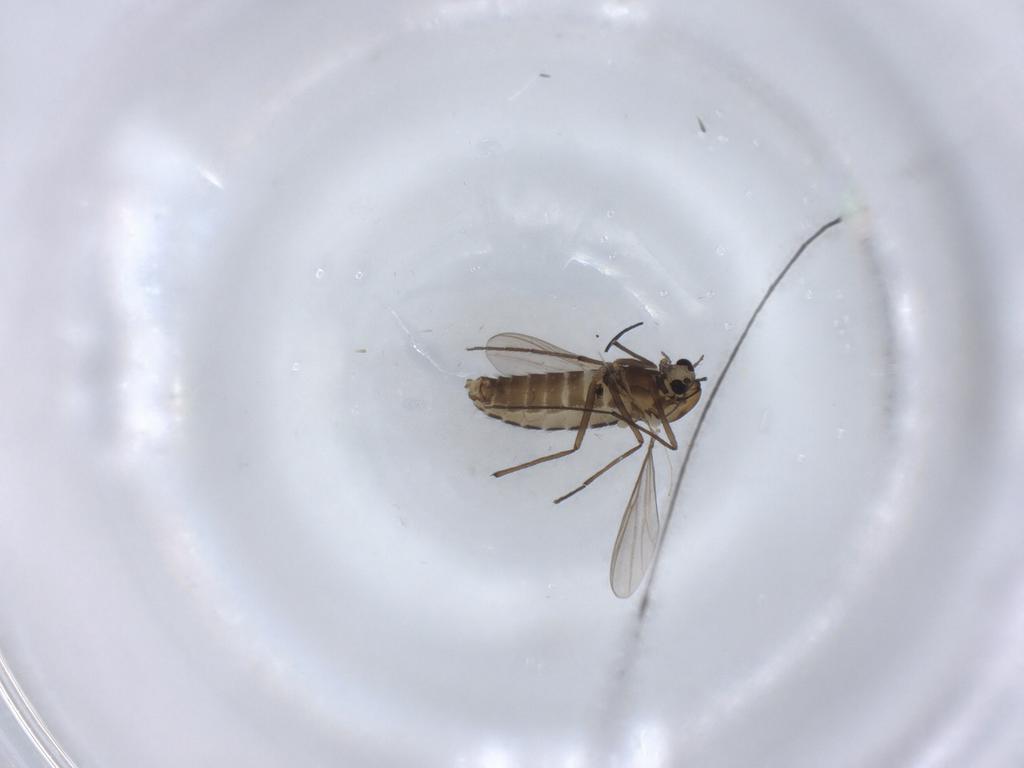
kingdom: Animalia
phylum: Arthropoda
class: Insecta
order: Diptera
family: Chironomidae
